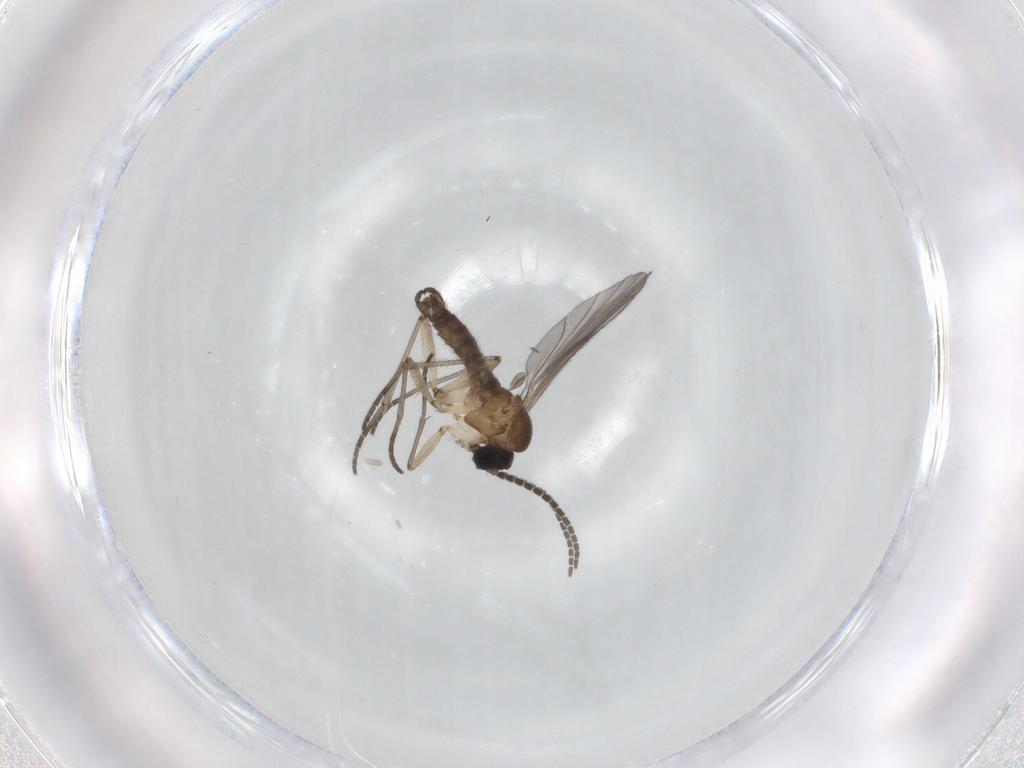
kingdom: Animalia
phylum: Arthropoda
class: Insecta
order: Diptera
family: Sciaridae
